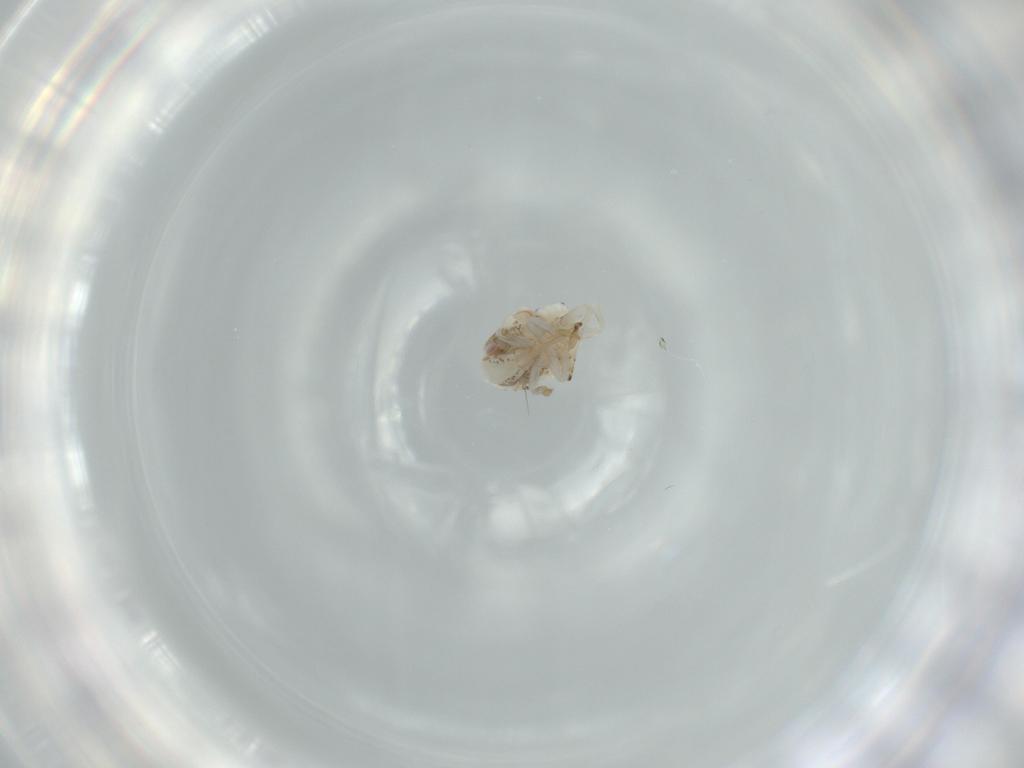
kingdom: Animalia
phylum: Arthropoda
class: Insecta
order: Hemiptera
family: Acanaloniidae
